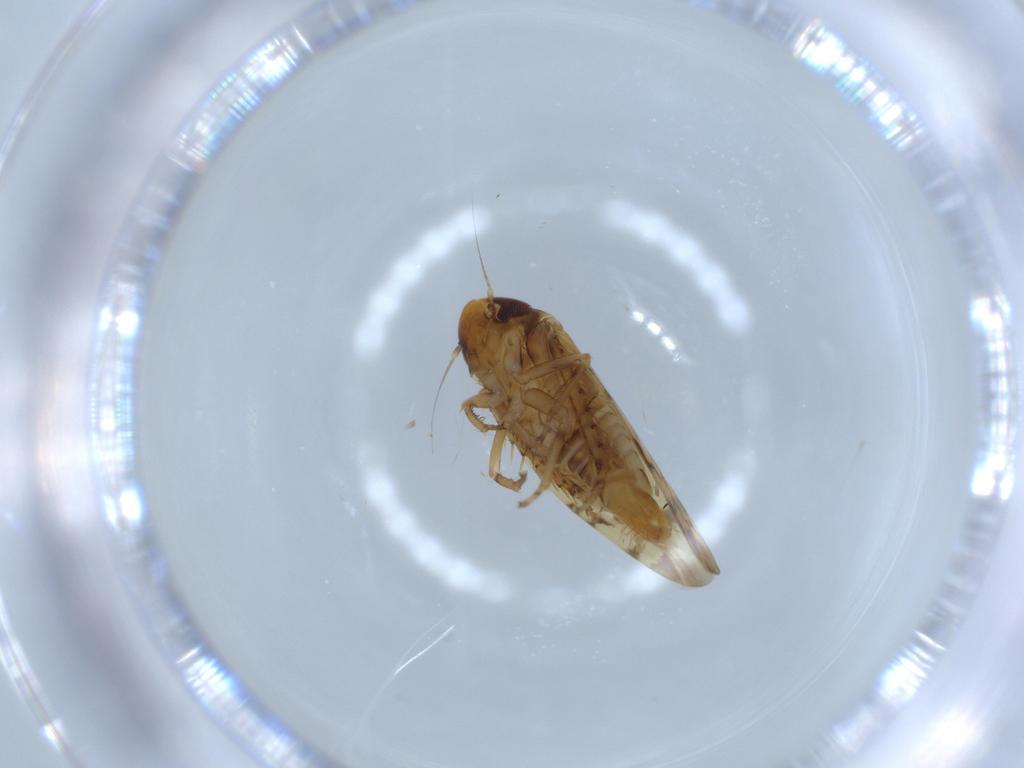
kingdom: Animalia
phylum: Arthropoda
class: Insecta
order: Hemiptera
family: Cicadellidae
